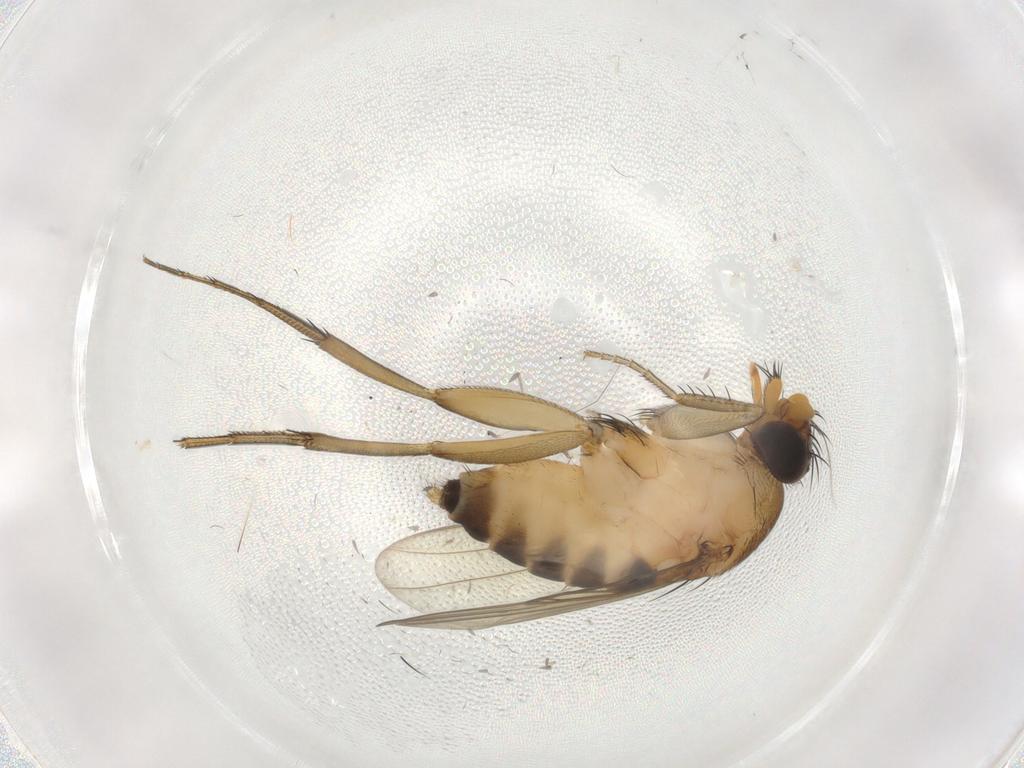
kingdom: Animalia
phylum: Arthropoda
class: Insecta
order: Diptera
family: Phoridae
